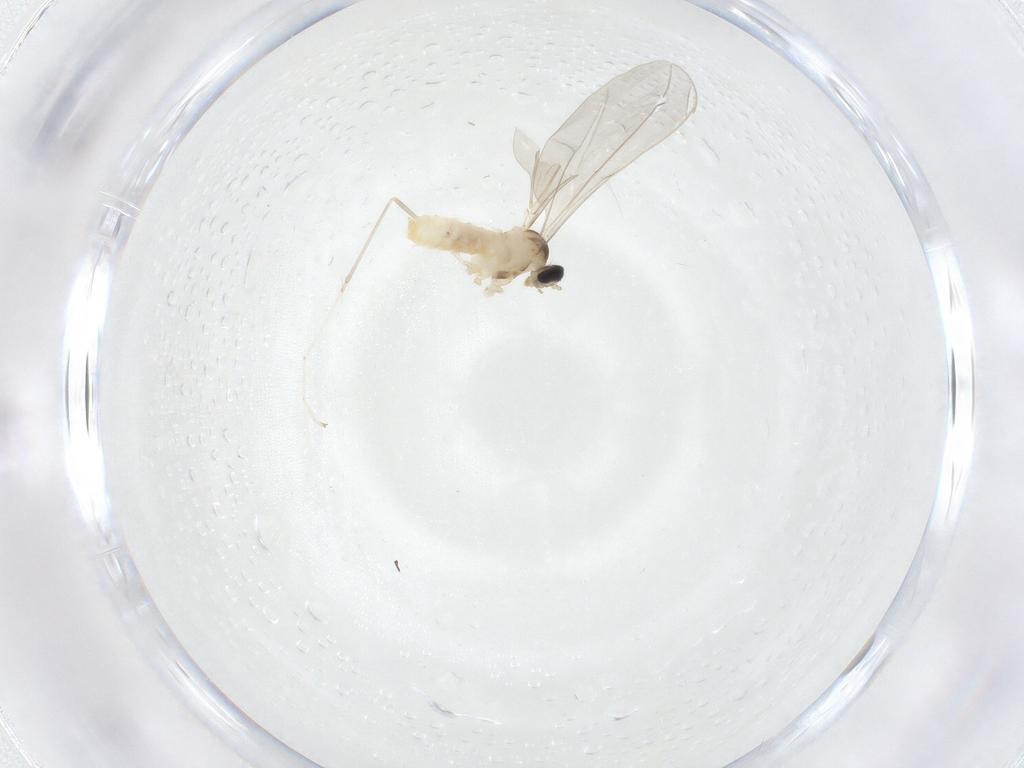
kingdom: Animalia
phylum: Arthropoda
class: Insecta
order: Diptera
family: Cecidomyiidae
